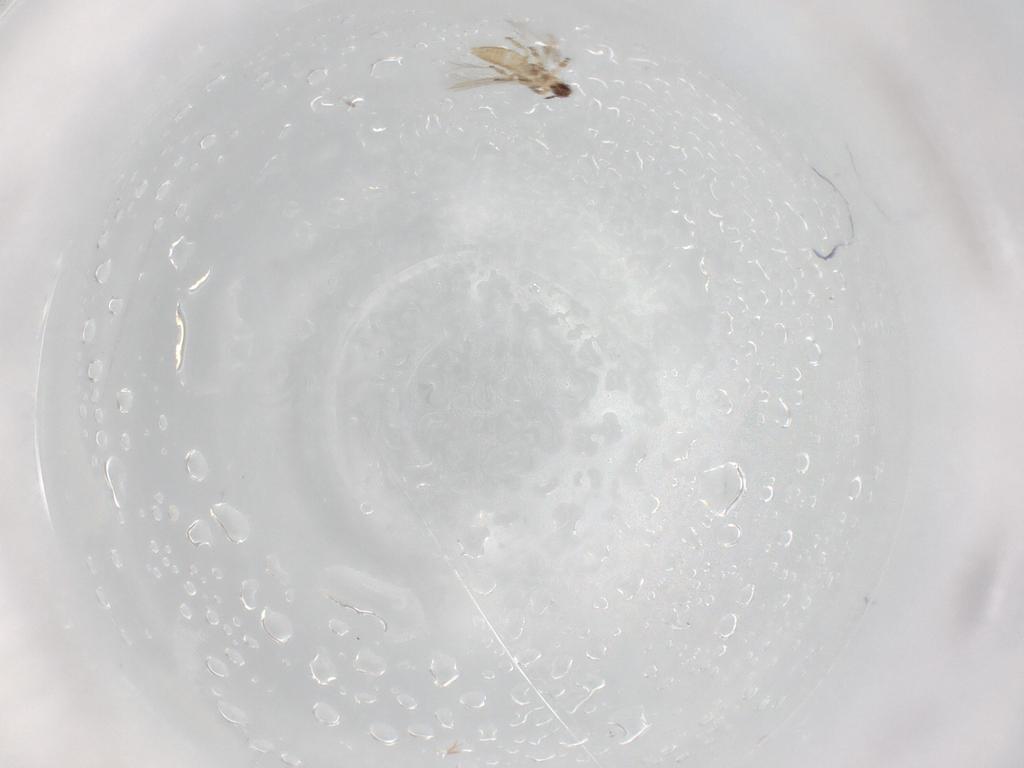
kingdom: Animalia
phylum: Arthropoda
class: Insecta
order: Thysanoptera
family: Thripidae
